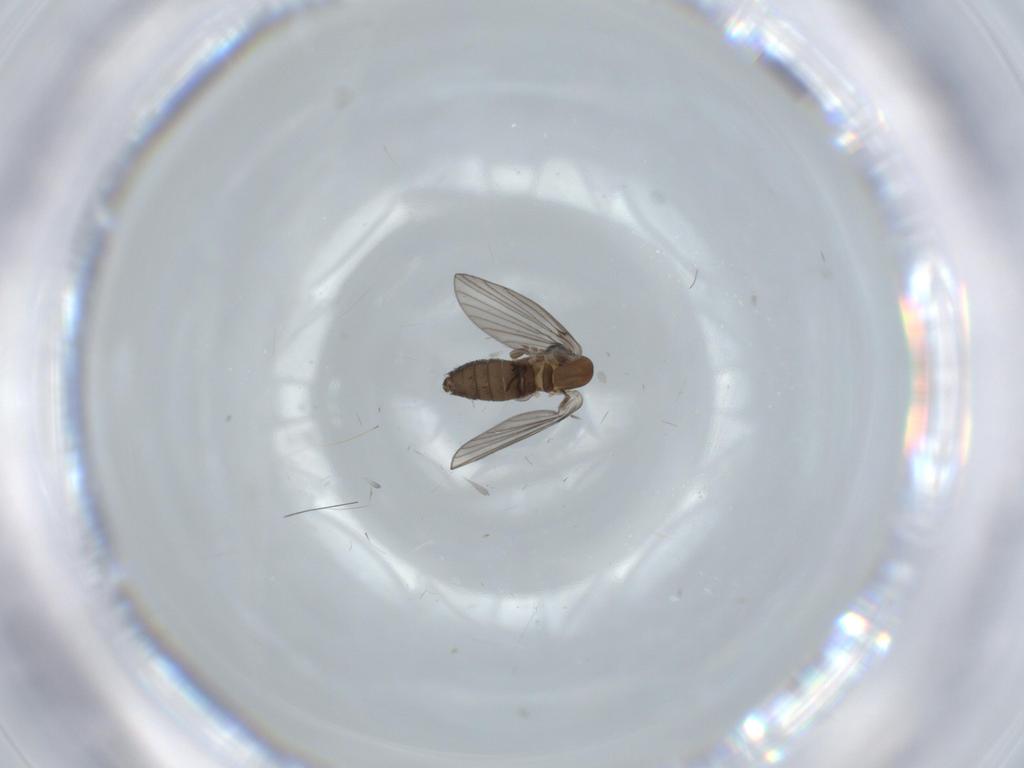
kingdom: Animalia
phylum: Arthropoda
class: Insecta
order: Diptera
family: Psychodidae
